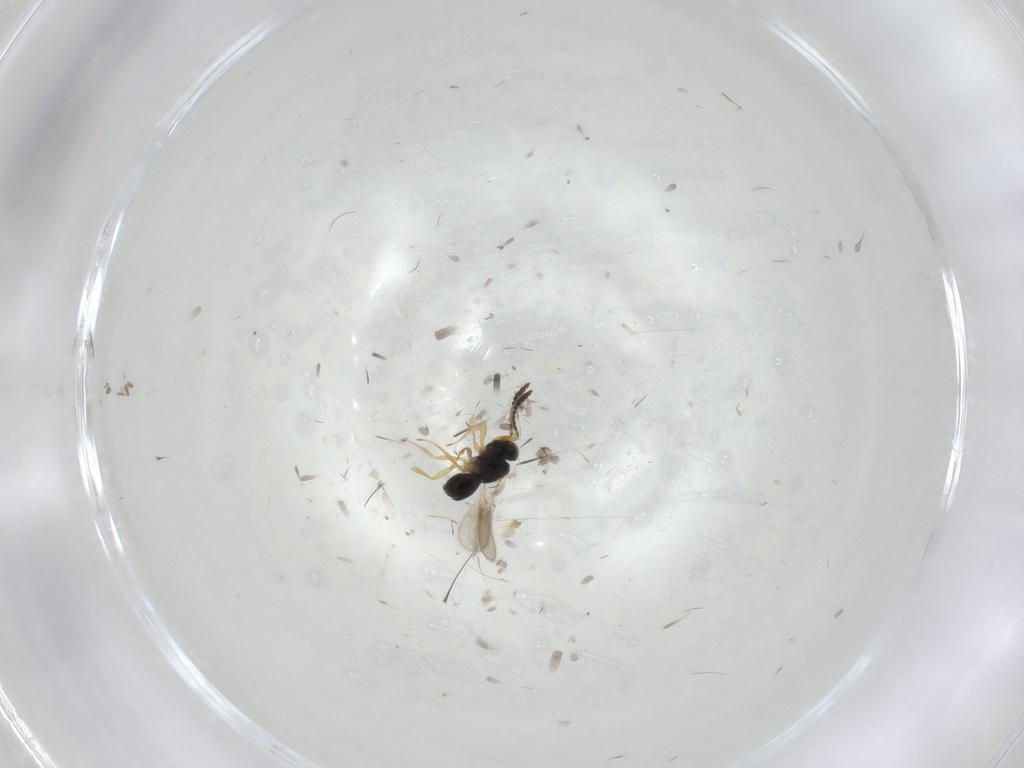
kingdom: Animalia
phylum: Arthropoda
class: Insecta
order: Hymenoptera
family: Scelionidae
